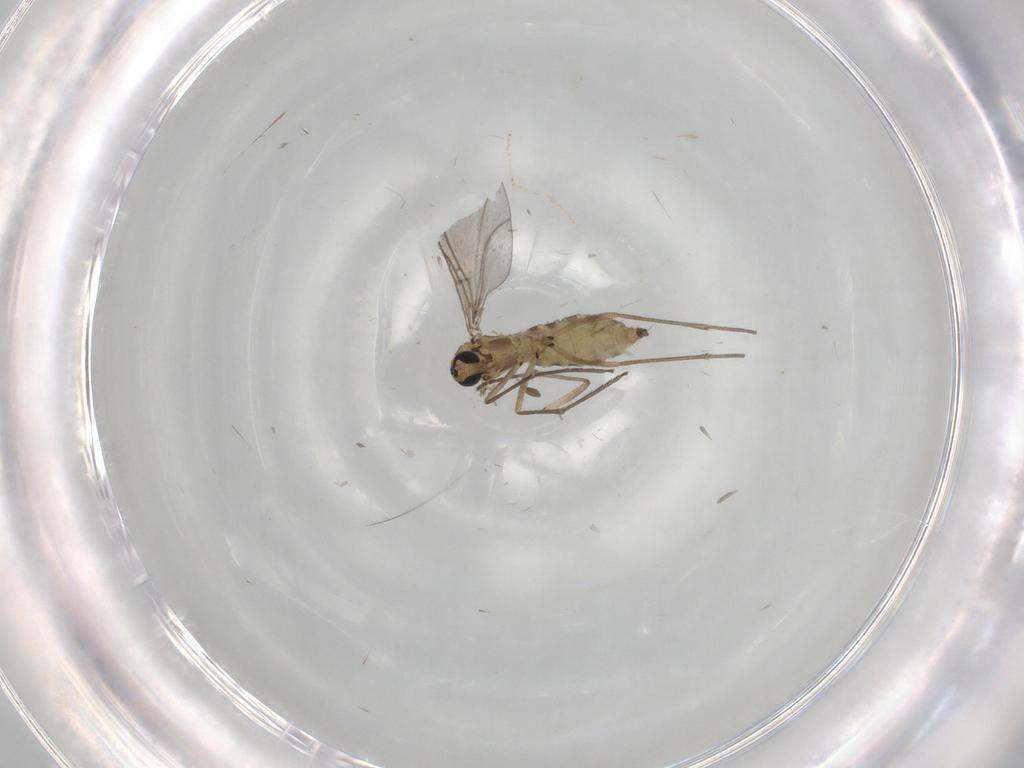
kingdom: Animalia
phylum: Arthropoda
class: Insecta
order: Diptera
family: Sciaridae
